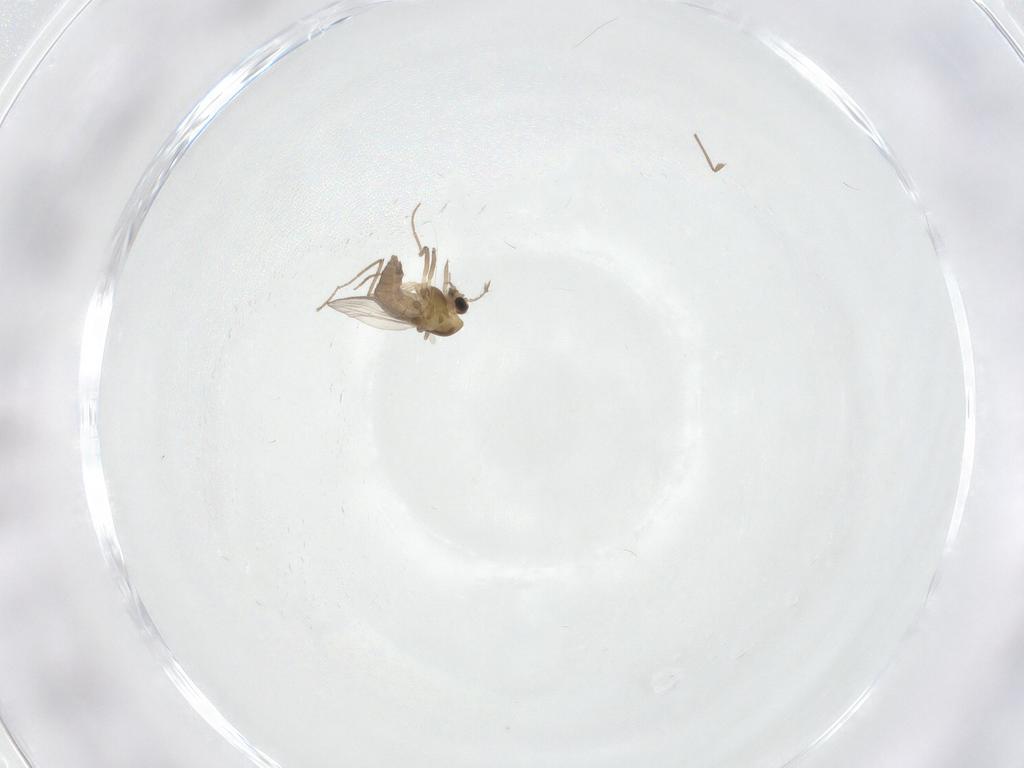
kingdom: Animalia
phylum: Arthropoda
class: Insecta
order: Diptera
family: Chironomidae
